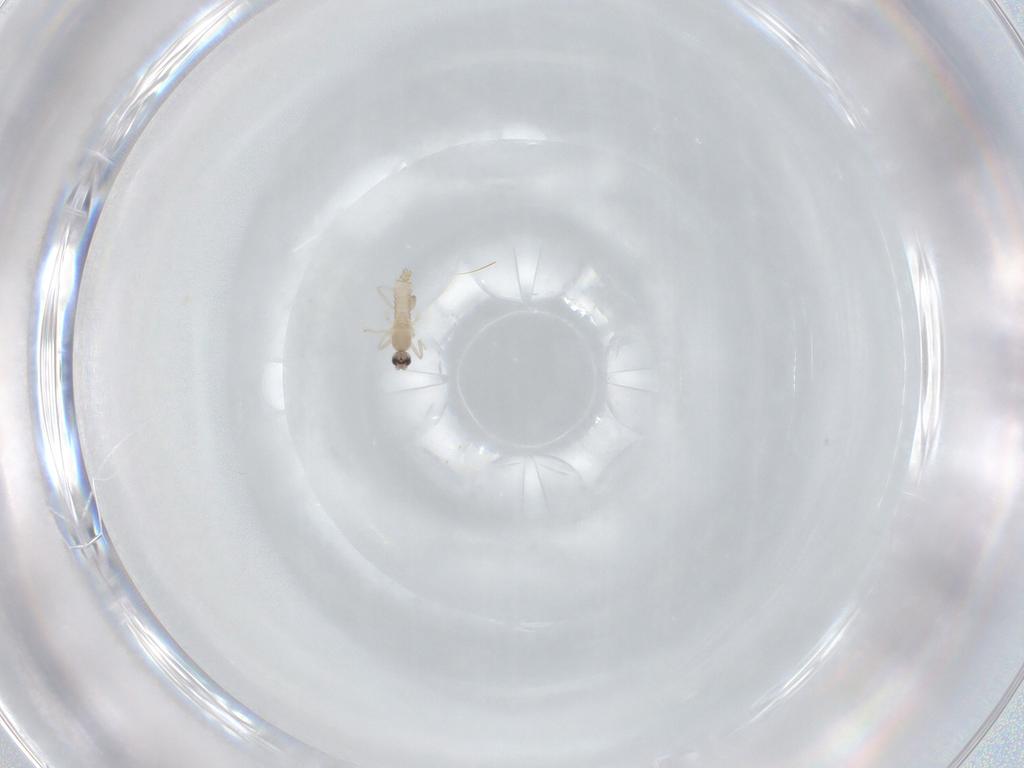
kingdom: Animalia
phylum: Arthropoda
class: Insecta
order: Diptera
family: Cecidomyiidae
